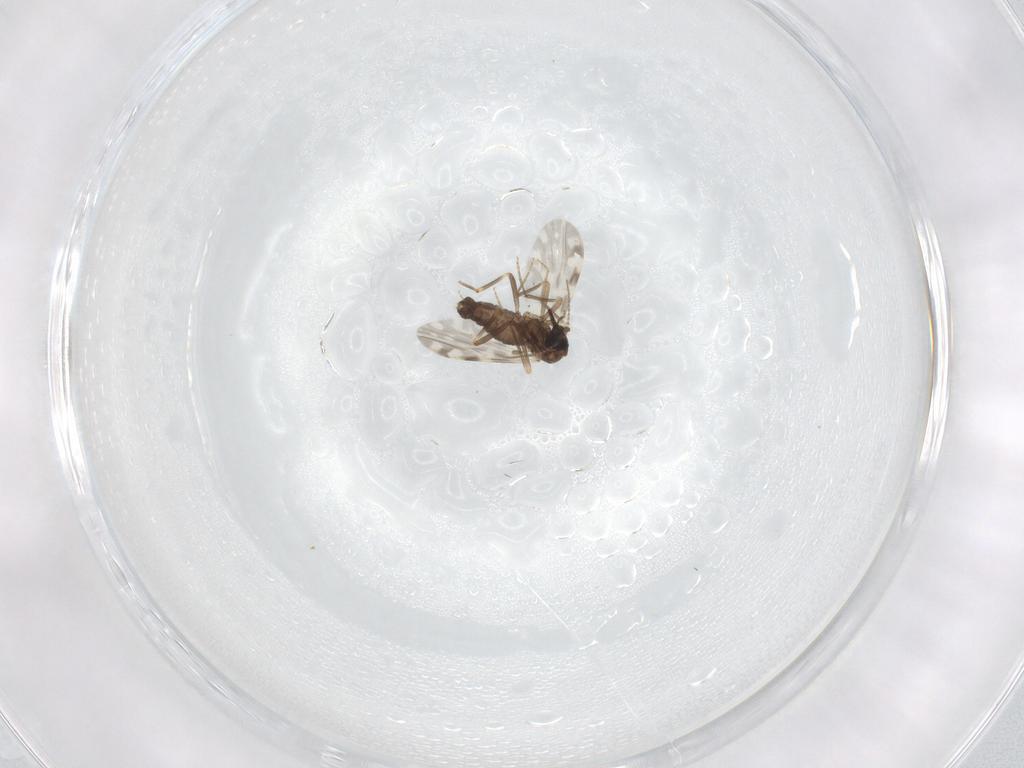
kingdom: Animalia
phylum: Arthropoda
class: Insecta
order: Diptera
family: Ceratopogonidae
